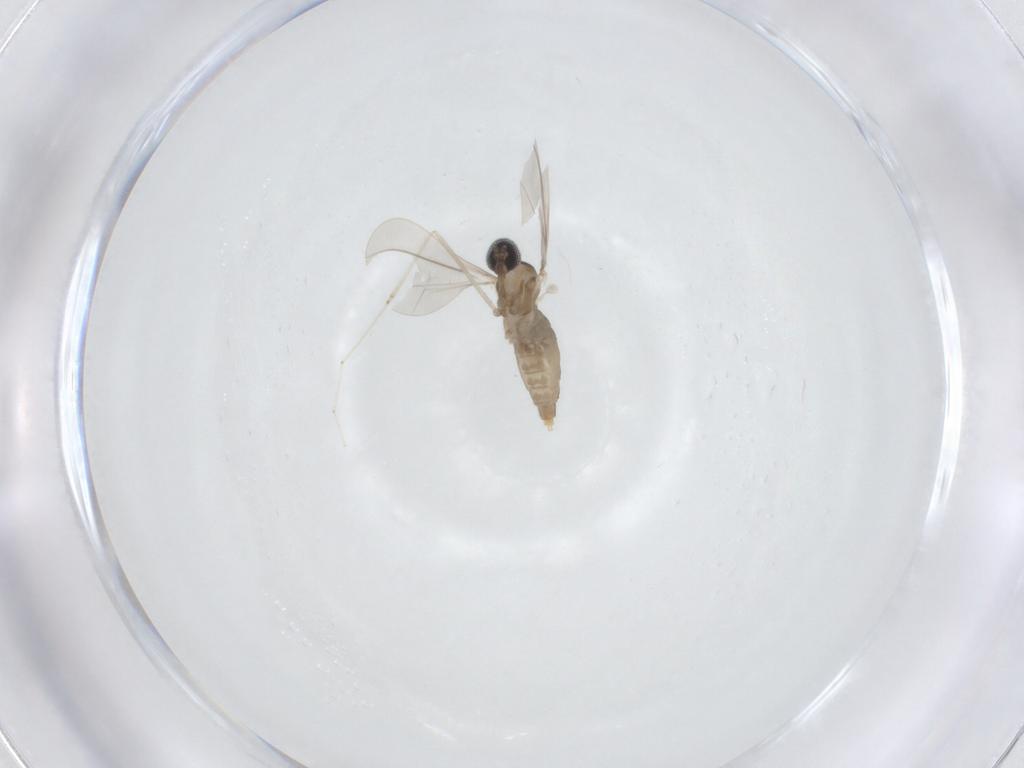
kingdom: Animalia
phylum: Arthropoda
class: Insecta
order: Diptera
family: Cecidomyiidae
